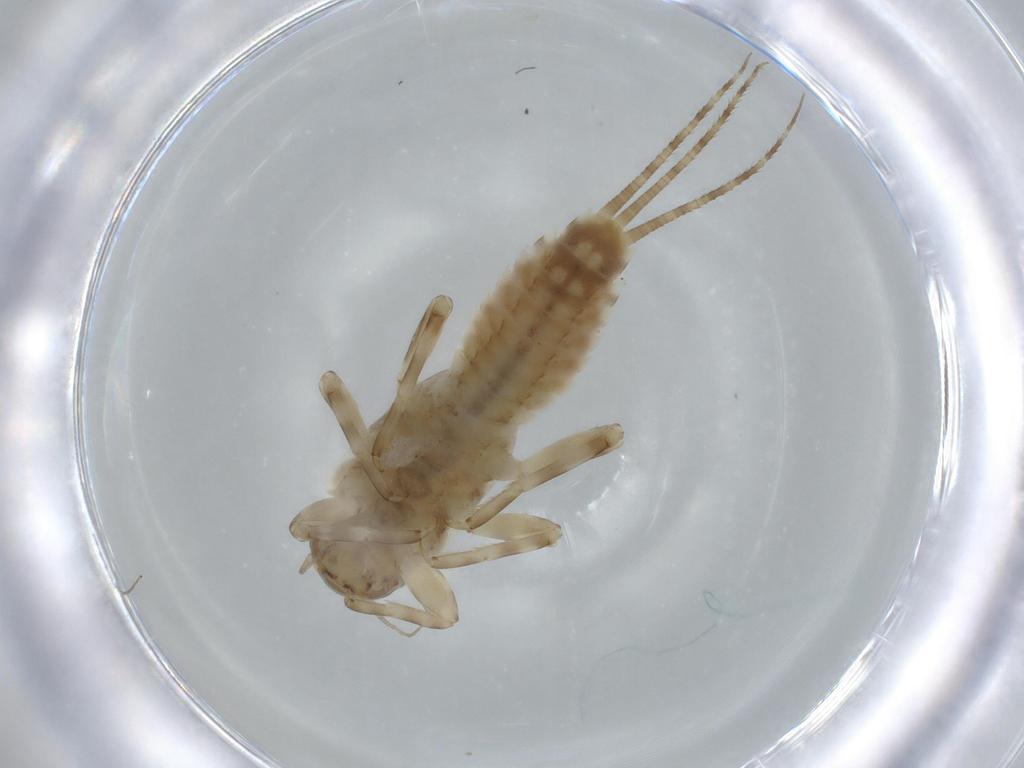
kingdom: Animalia
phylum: Arthropoda
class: Insecta
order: Ephemeroptera
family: Ephemerellidae
